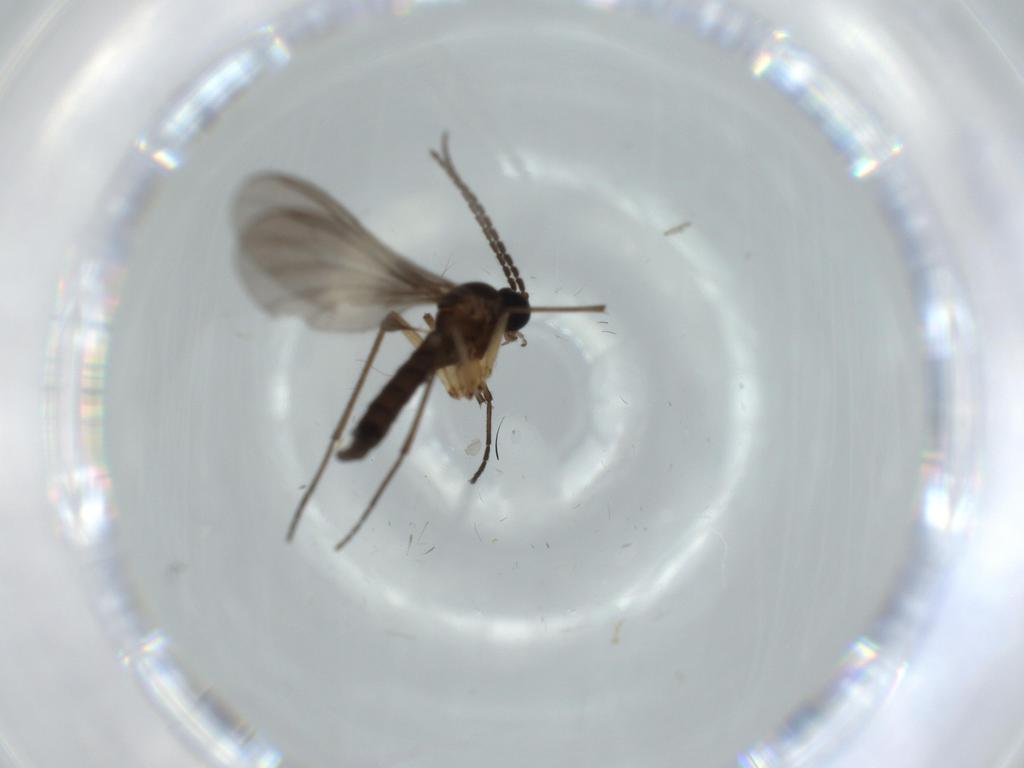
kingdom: Animalia
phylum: Arthropoda
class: Insecta
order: Diptera
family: Sciaridae
